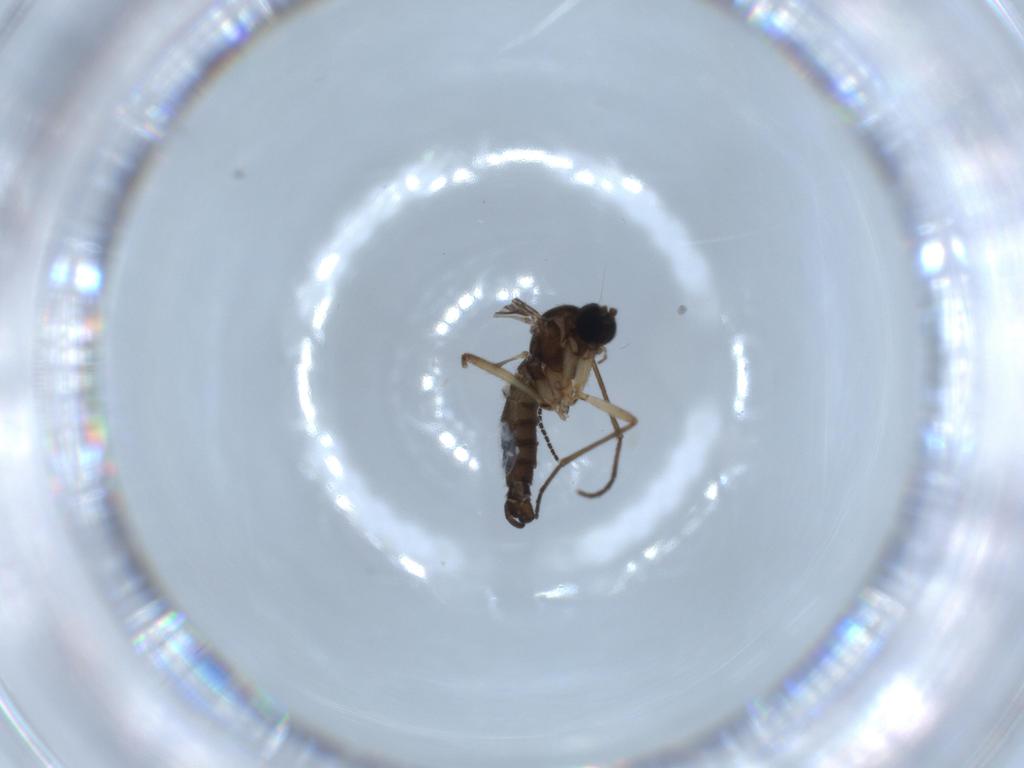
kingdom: Animalia
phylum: Arthropoda
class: Insecta
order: Diptera
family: Sciaridae
